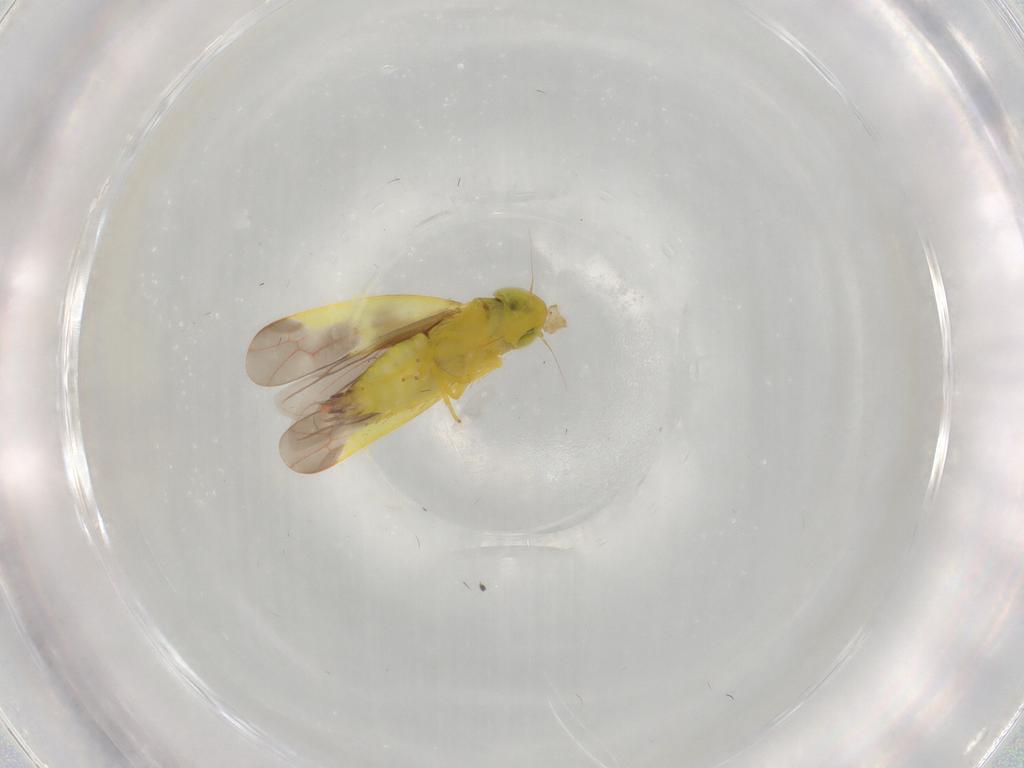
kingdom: Animalia
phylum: Arthropoda
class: Insecta
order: Hemiptera
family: Cicadellidae
